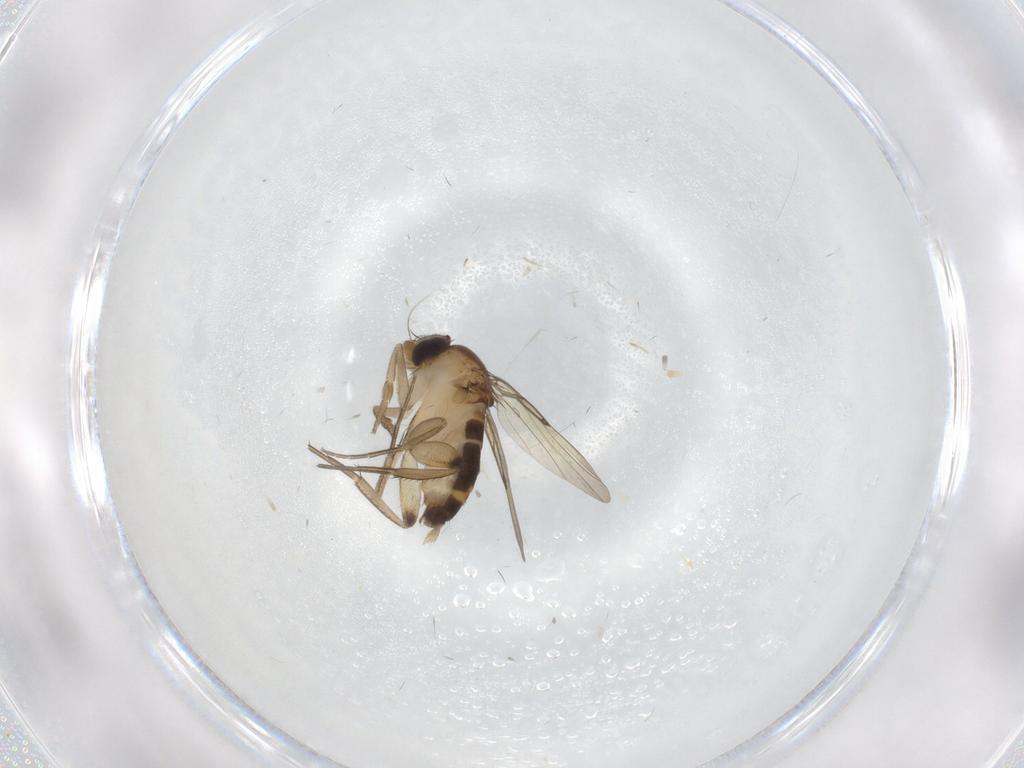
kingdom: Animalia
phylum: Arthropoda
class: Insecta
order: Diptera
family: Phoridae
